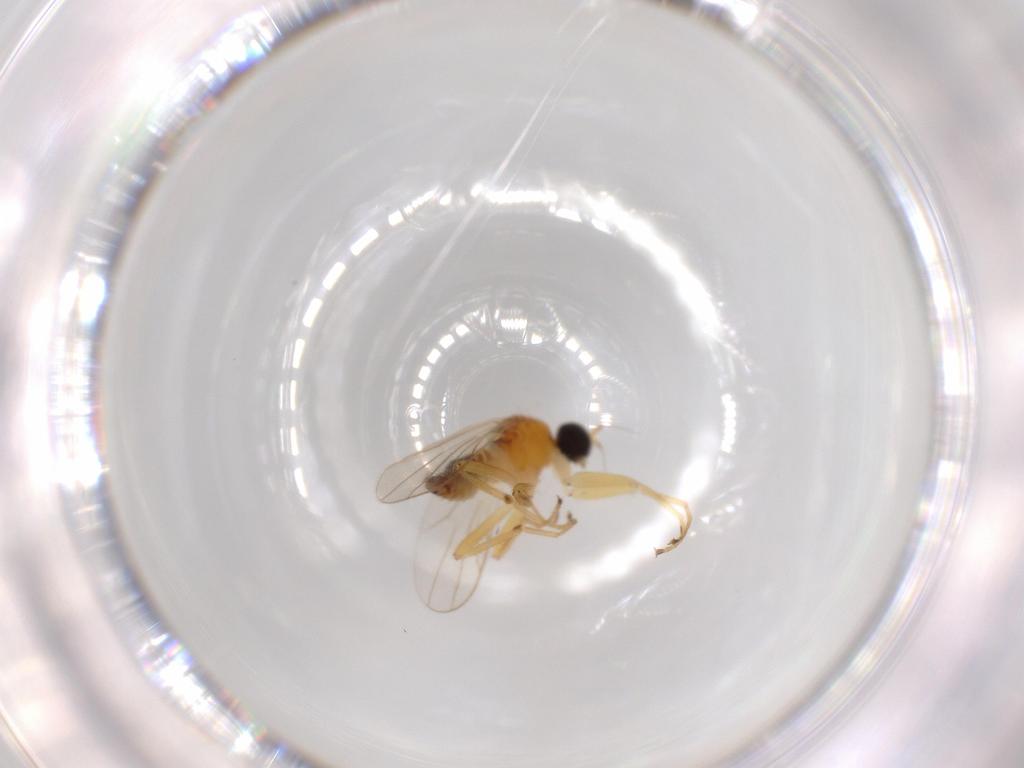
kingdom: Animalia
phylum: Arthropoda
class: Insecta
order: Diptera
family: Hybotidae
